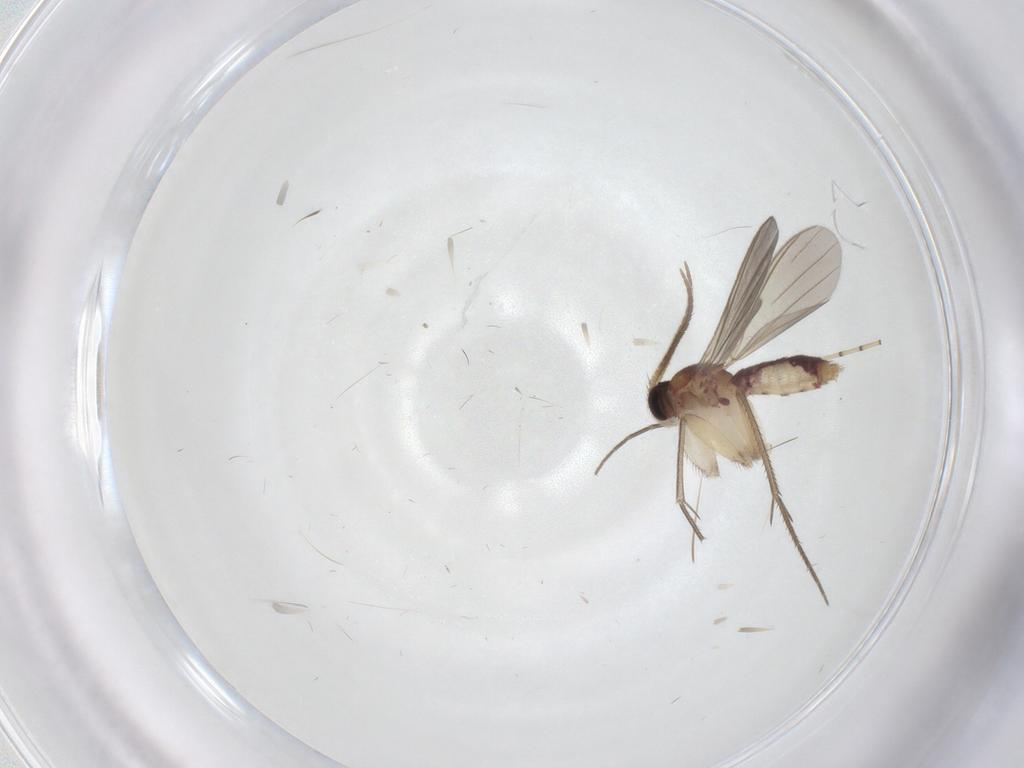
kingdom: Animalia
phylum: Arthropoda
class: Insecta
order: Diptera
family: Mycetophilidae
